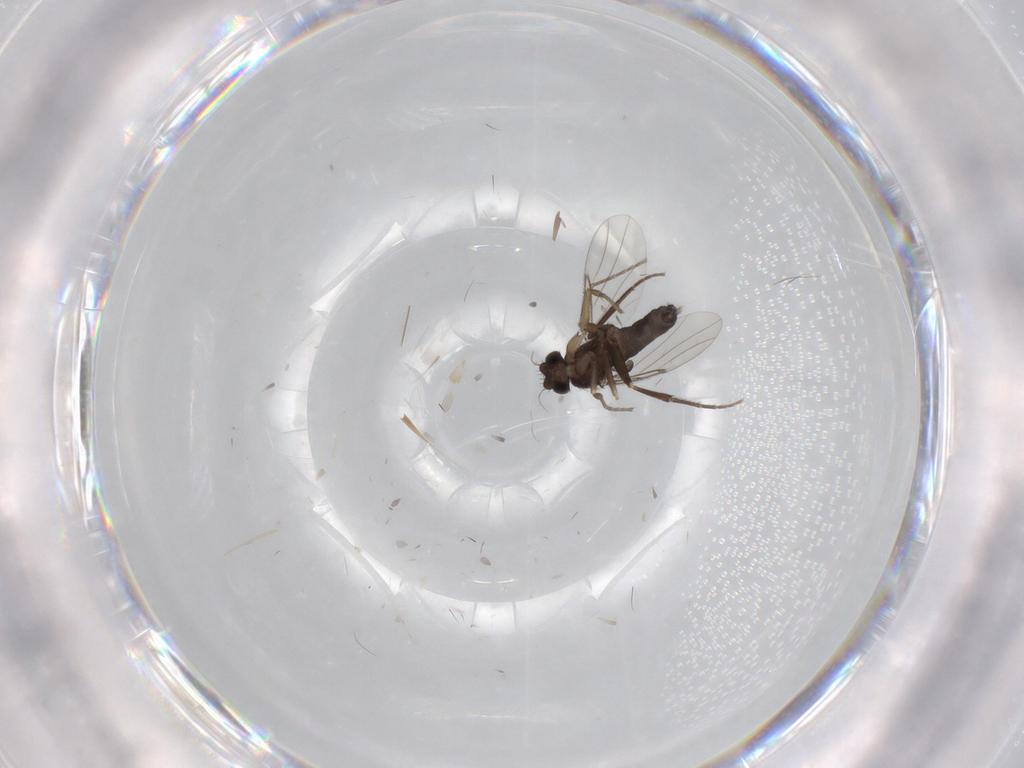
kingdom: Animalia
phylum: Arthropoda
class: Insecta
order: Diptera
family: Phoridae
